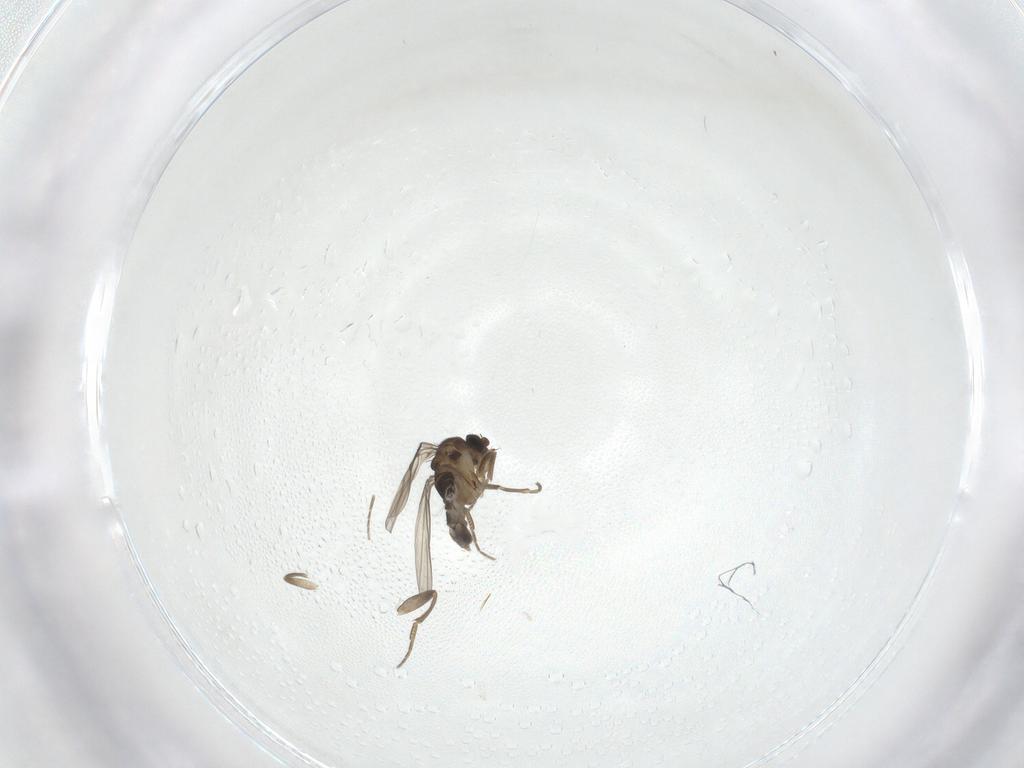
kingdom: Animalia
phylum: Arthropoda
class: Insecta
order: Diptera
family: Phoridae
